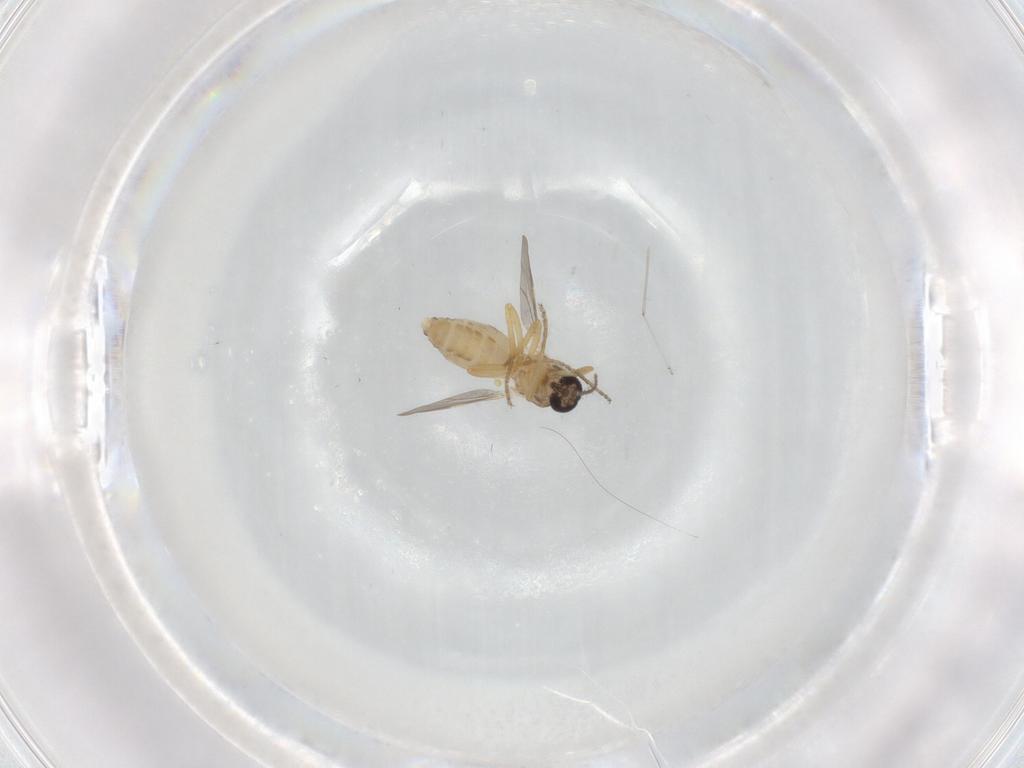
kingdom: Animalia
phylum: Arthropoda
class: Insecta
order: Diptera
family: Ceratopogonidae
